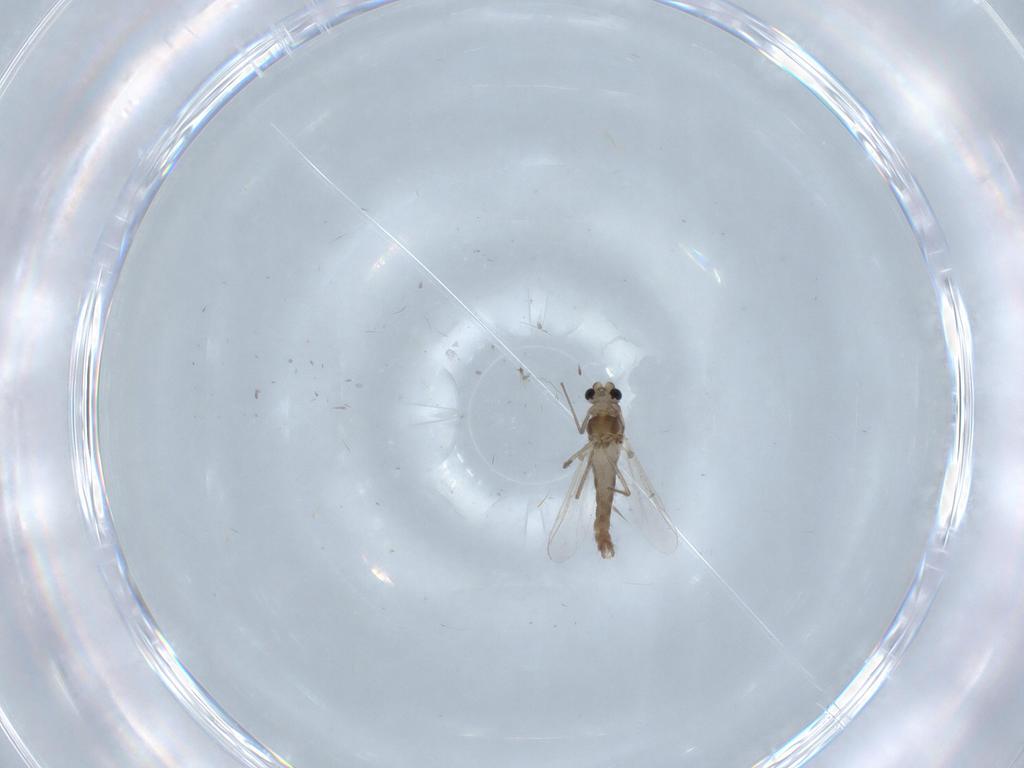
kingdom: Animalia
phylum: Arthropoda
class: Insecta
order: Diptera
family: Chironomidae
